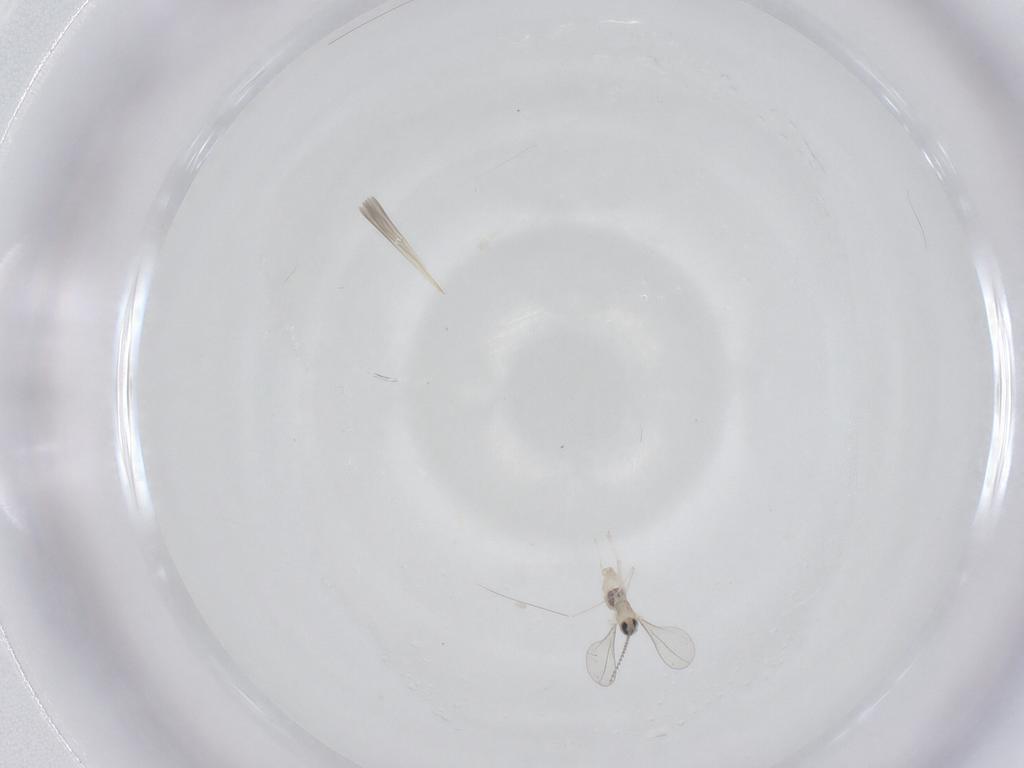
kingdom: Animalia
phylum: Arthropoda
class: Insecta
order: Diptera
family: Cecidomyiidae
